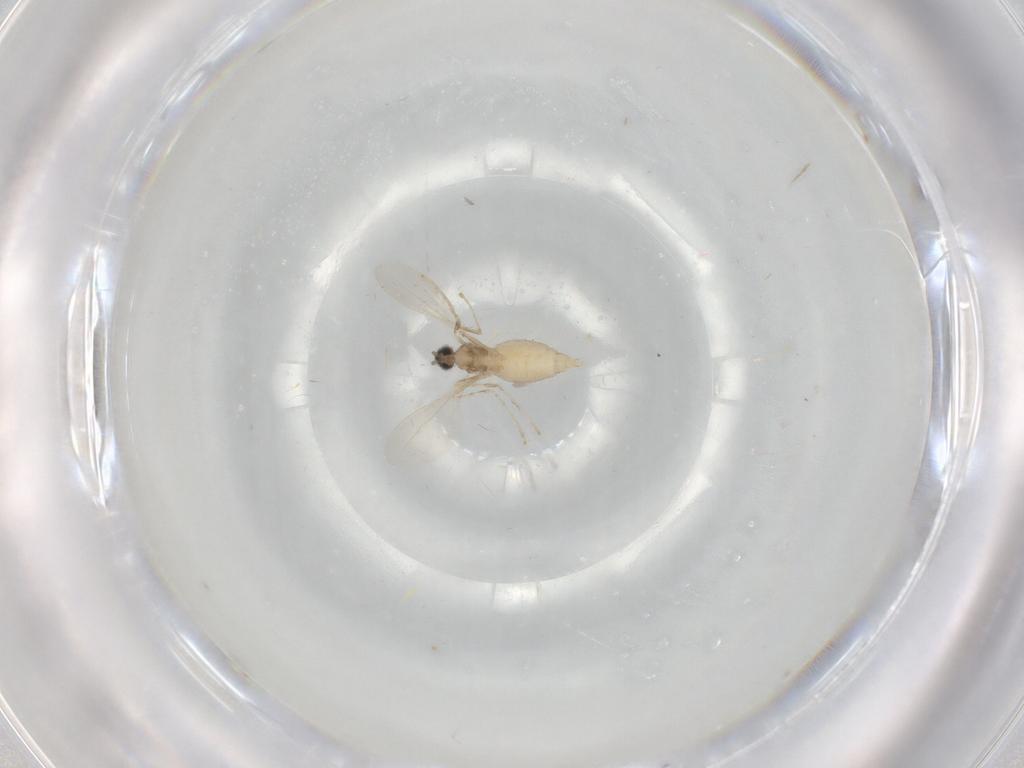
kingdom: Animalia
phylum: Arthropoda
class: Insecta
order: Diptera
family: Cecidomyiidae
